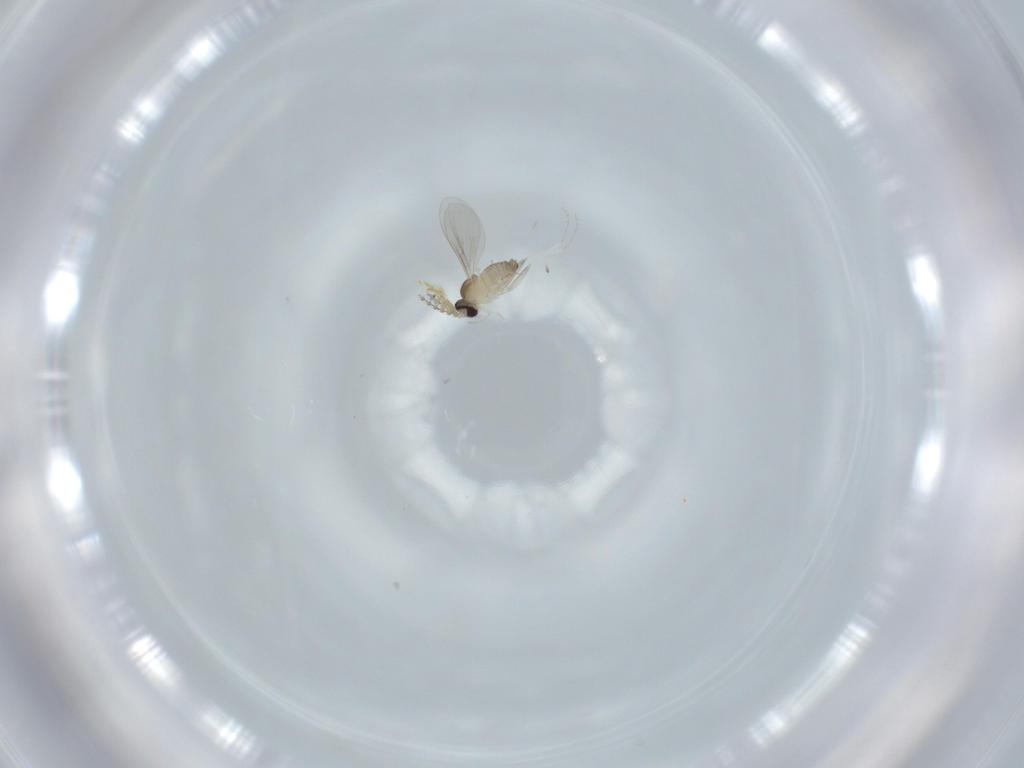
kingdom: Animalia
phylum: Arthropoda
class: Insecta
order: Diptera
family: Cecidomyiidae
